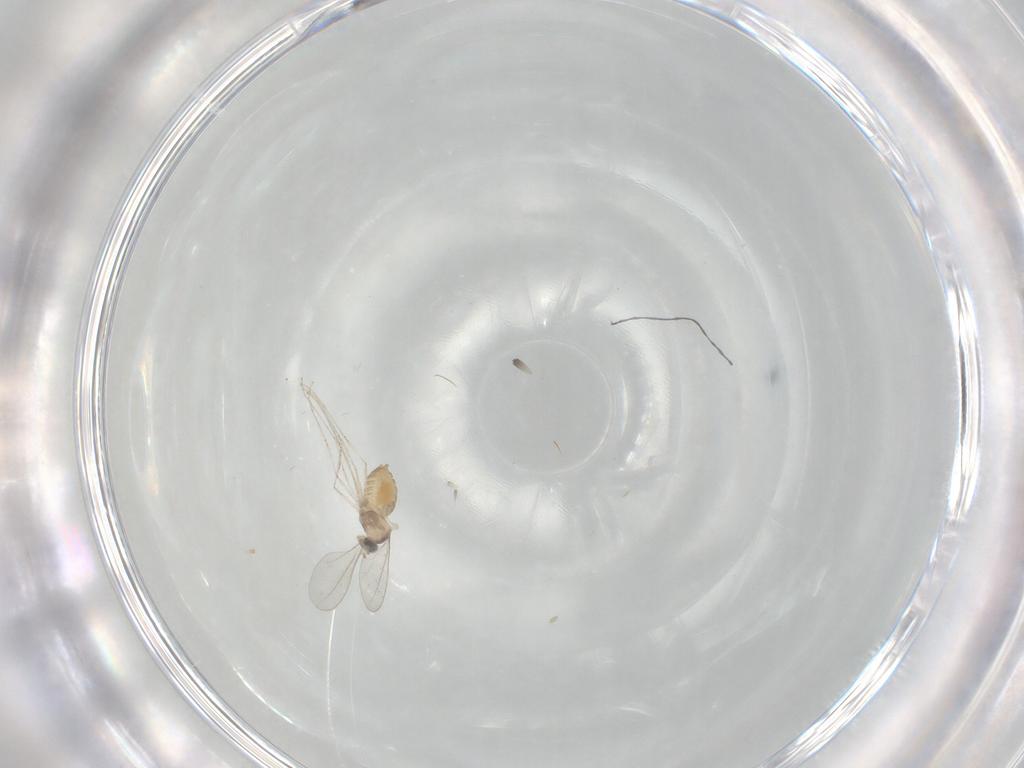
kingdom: Animalia
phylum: Arthropoda
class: Insecta
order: Diptera
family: Cecidomyiidae
